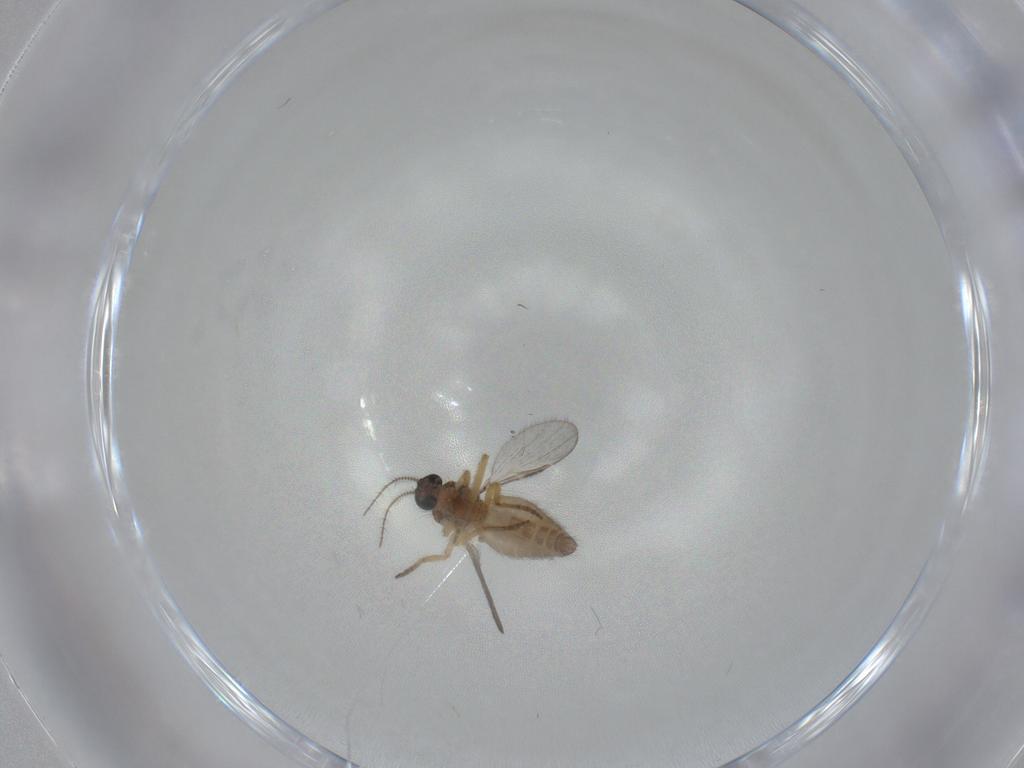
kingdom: Animalia
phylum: Arthropoda
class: Insecta
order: Diptera
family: Ceratopogonidae
